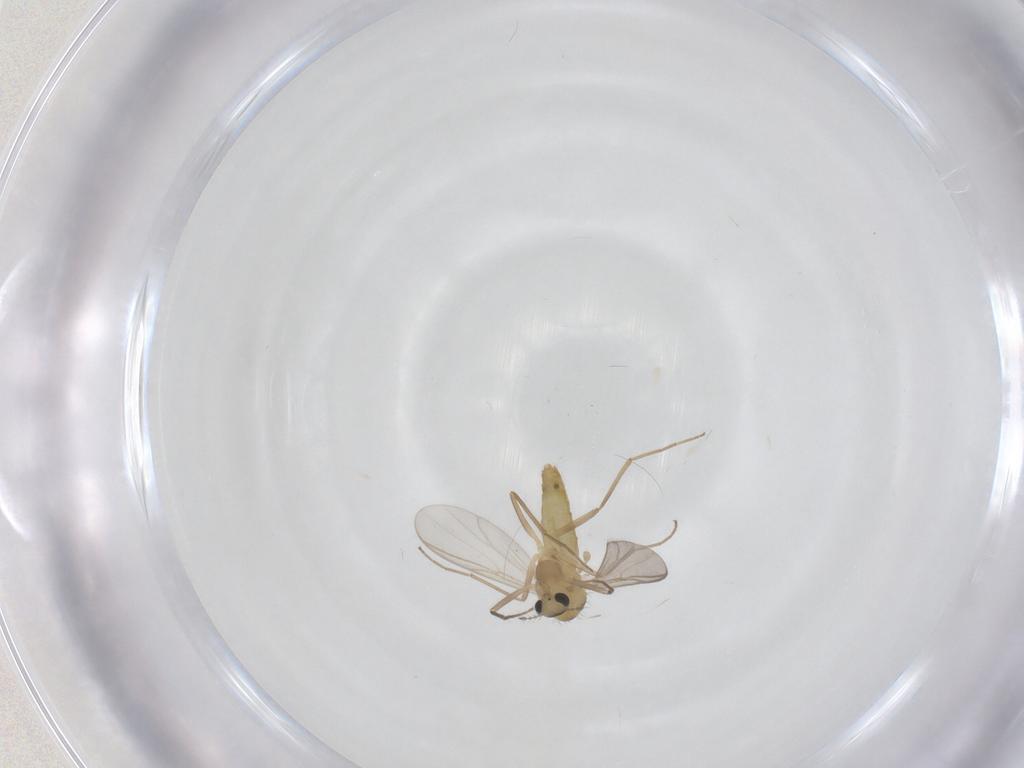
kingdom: Animalia
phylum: Arthropoda
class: Insecta
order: Diptera
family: Chironomidae
